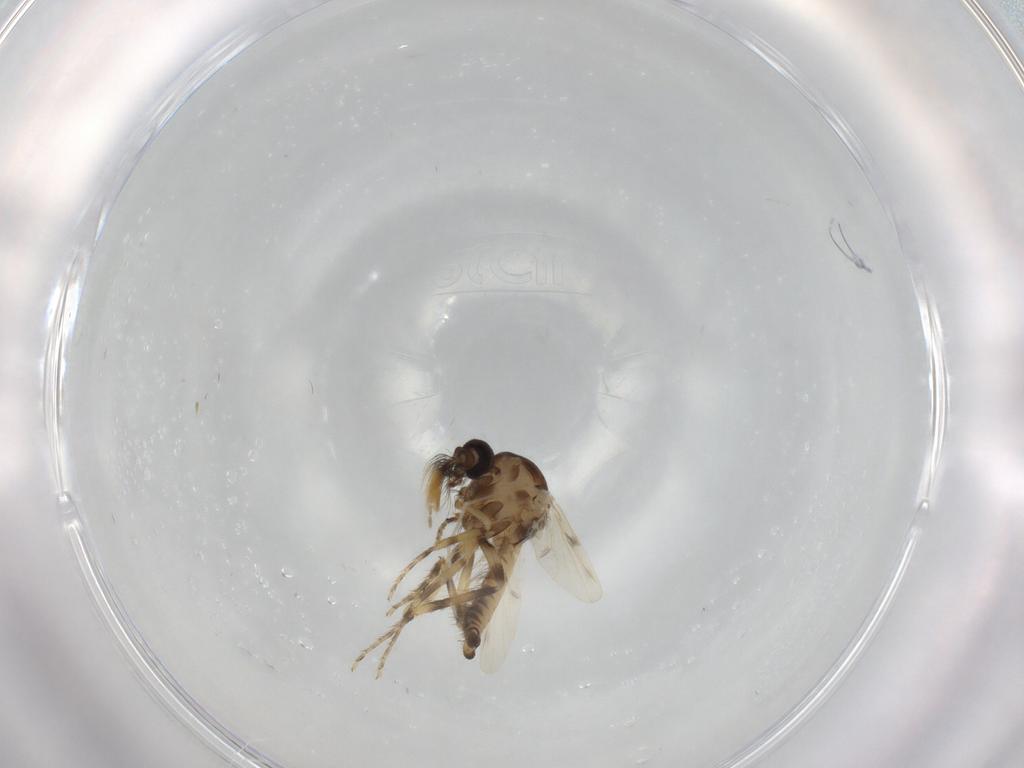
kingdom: Animalia
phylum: Arthropoda
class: Insecta
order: Diptera
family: Ceratopogonidae
